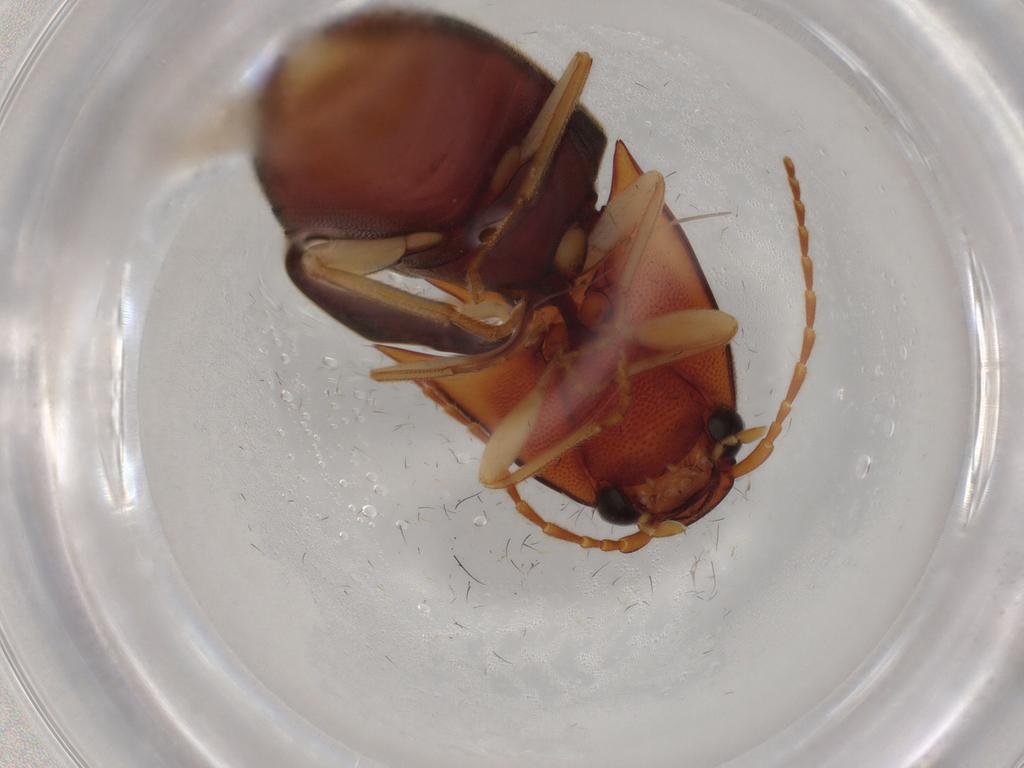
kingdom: Animalia
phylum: Arthropoda
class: Insecta
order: Coleoptera
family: Elateridae
